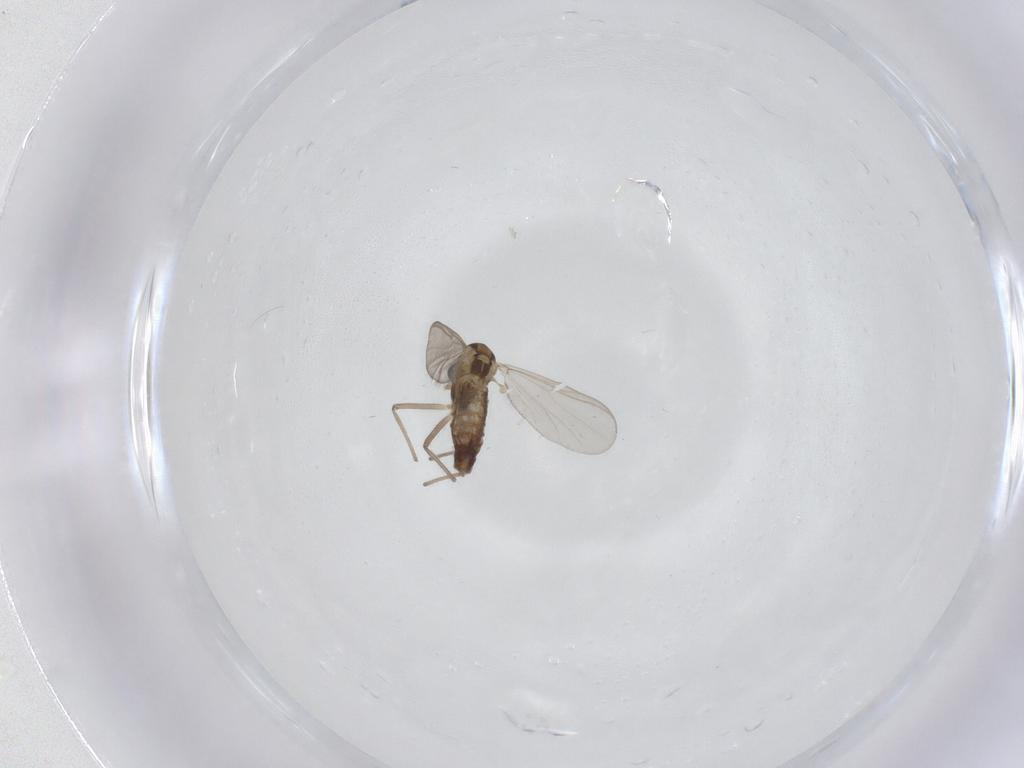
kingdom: Animalia
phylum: Arthropoda
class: Insecta
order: Diptera
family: Chironomidae
